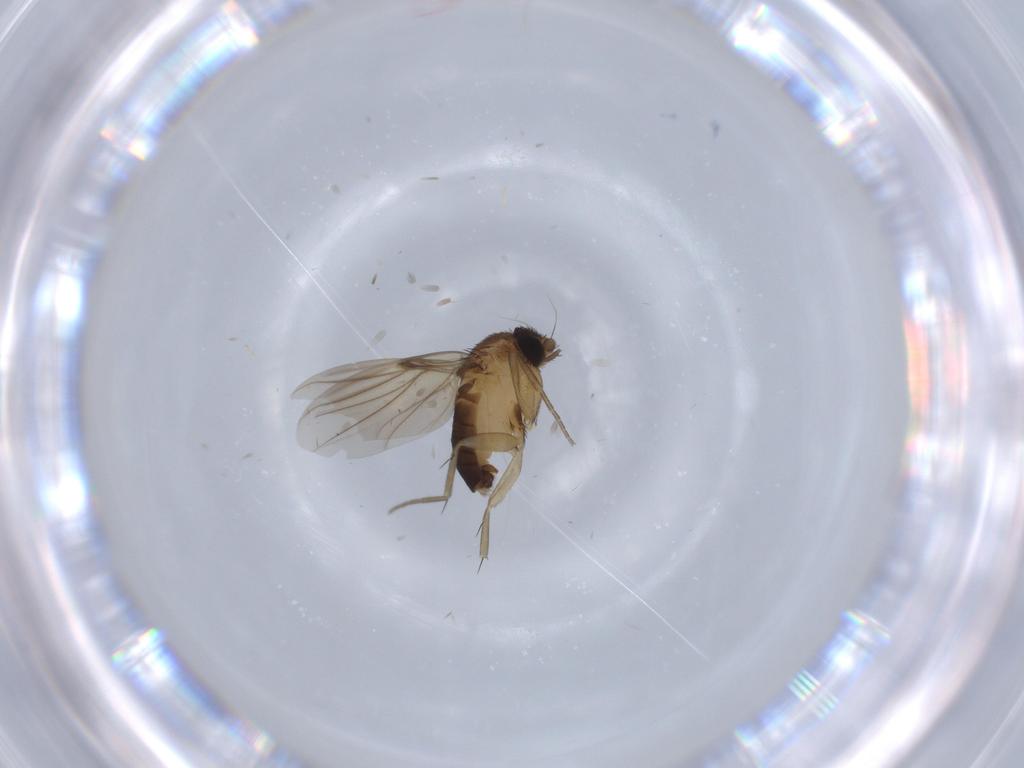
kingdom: Animalia
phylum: Arthropoda
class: Insecta
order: Diptera
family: Phoridae
